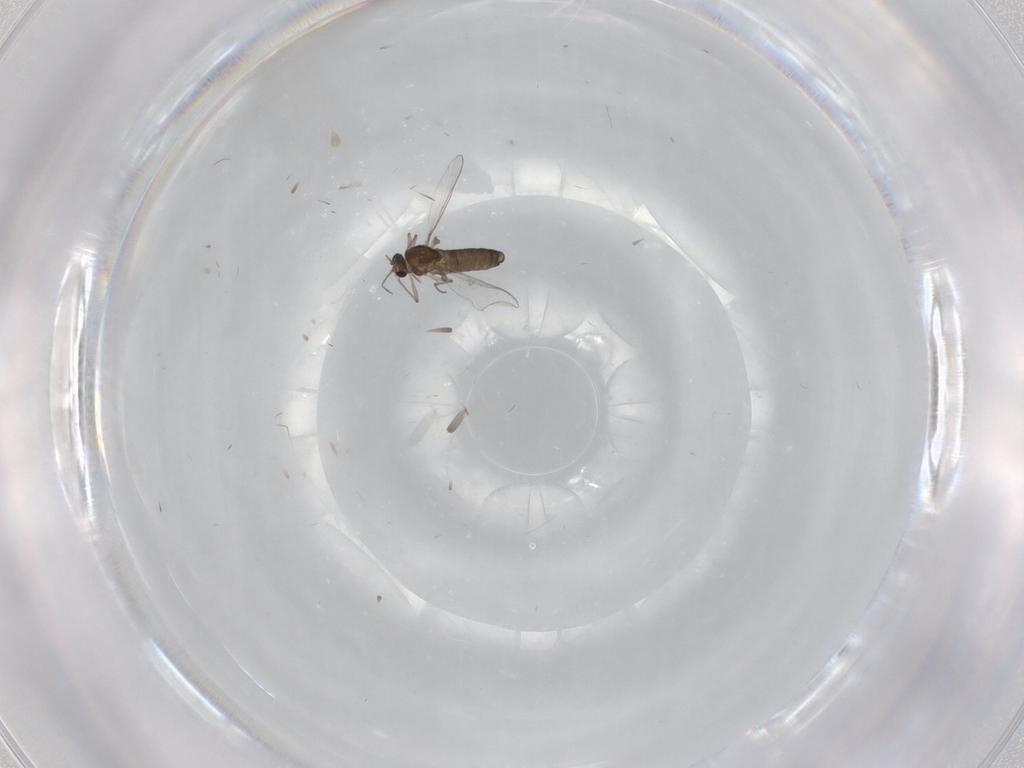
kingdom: Animalia
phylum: Arthropoda
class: Insecta
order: Diptera
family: Chironomidae
